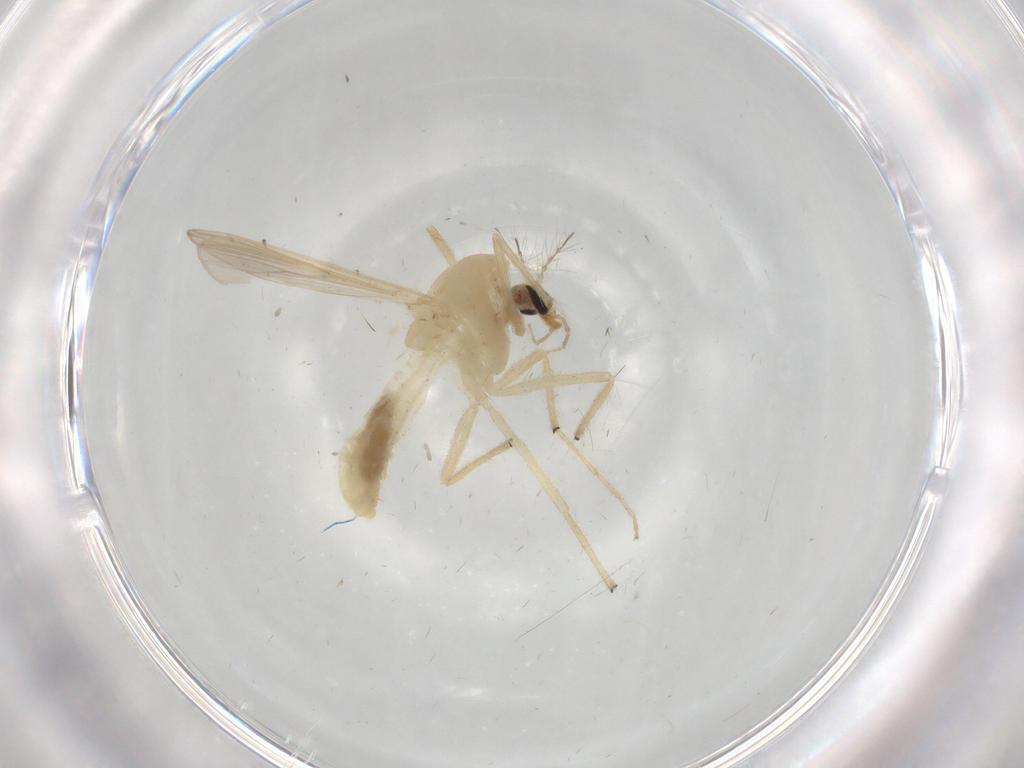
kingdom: Animalia
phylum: Arthropoda
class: Insecta
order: Diptera
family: Chironomidae
